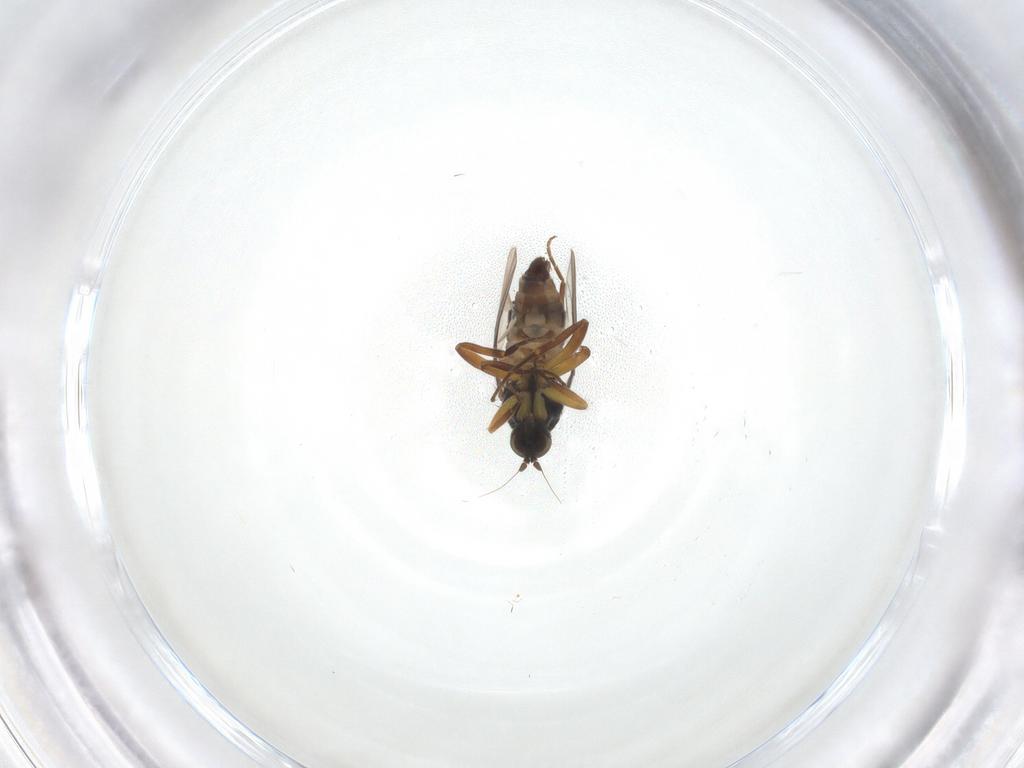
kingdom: Animalia
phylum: Arthropoda
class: Insecta
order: Diptera
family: Hybotidae
